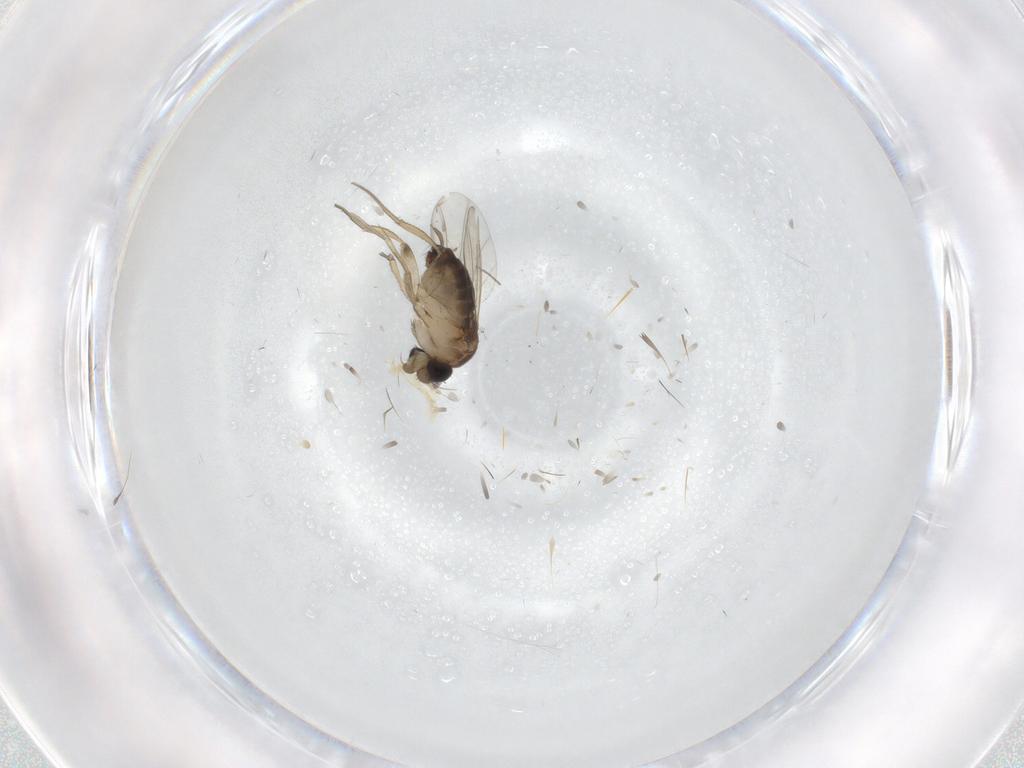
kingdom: Animalia
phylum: Arthropoda
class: Insecta
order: Diptera
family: Phoridae
